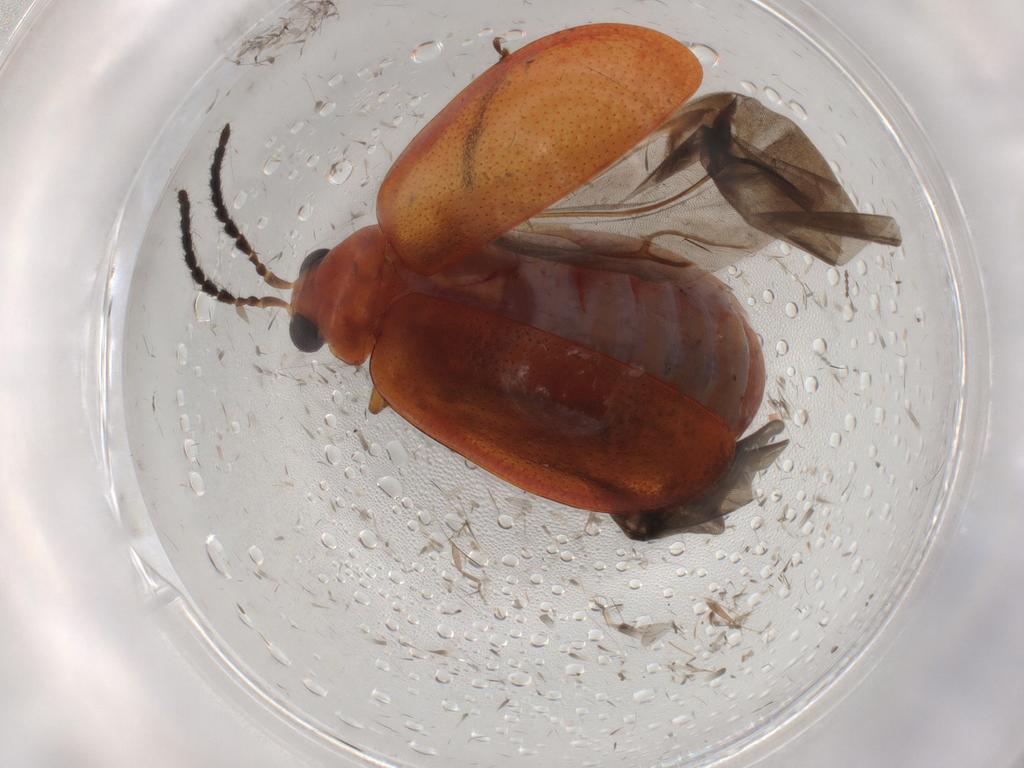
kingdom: Animalia
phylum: Arthropoda
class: Insecta
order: Coleoptera
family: Chrysomelidae
